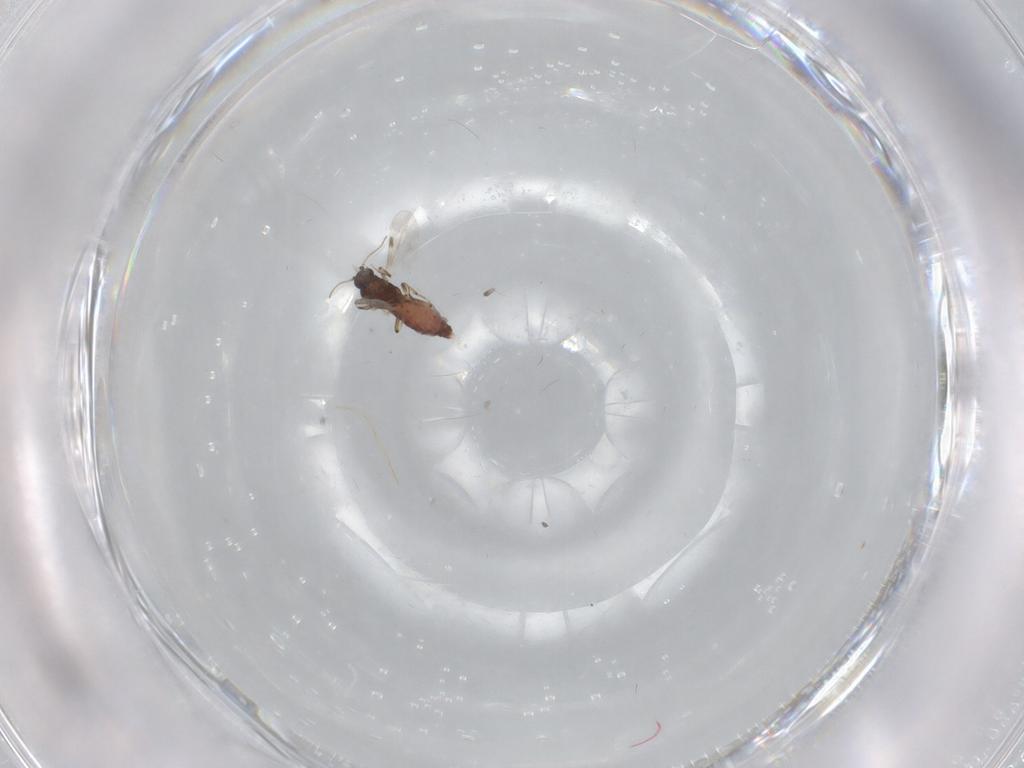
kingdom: Animalia
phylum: Arthropoda
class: Insecta
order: Diptera
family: Chironomidae
